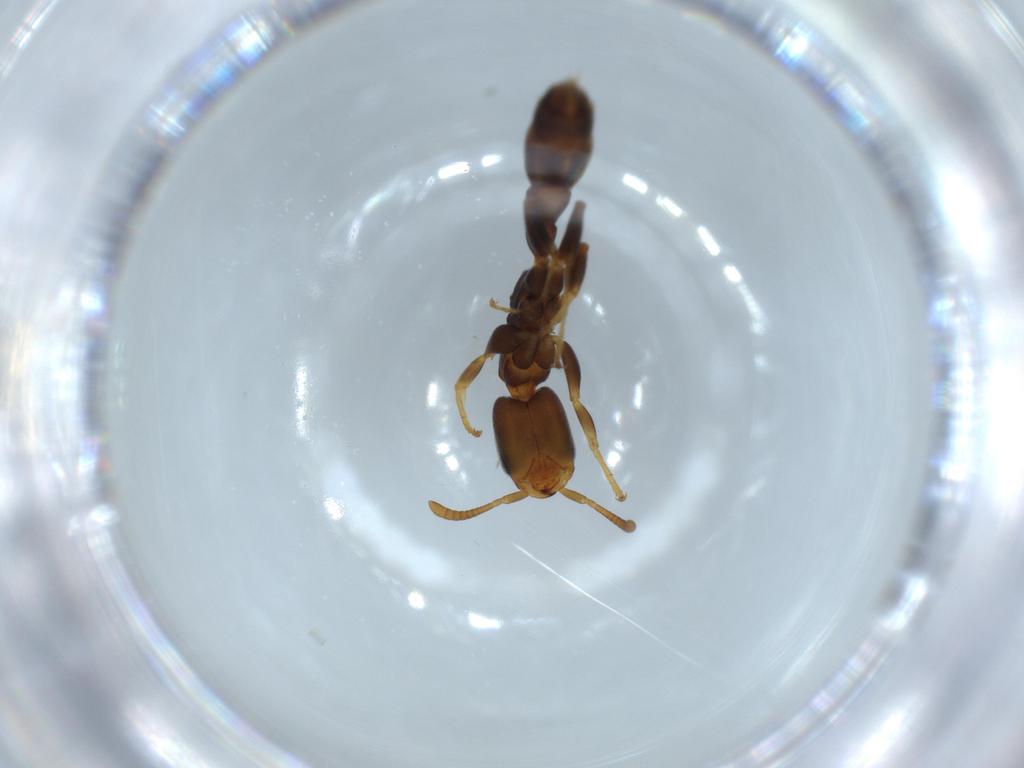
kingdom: Animalia
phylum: Arthropoda
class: Insecta
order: Hymenoptera
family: Formicidae
